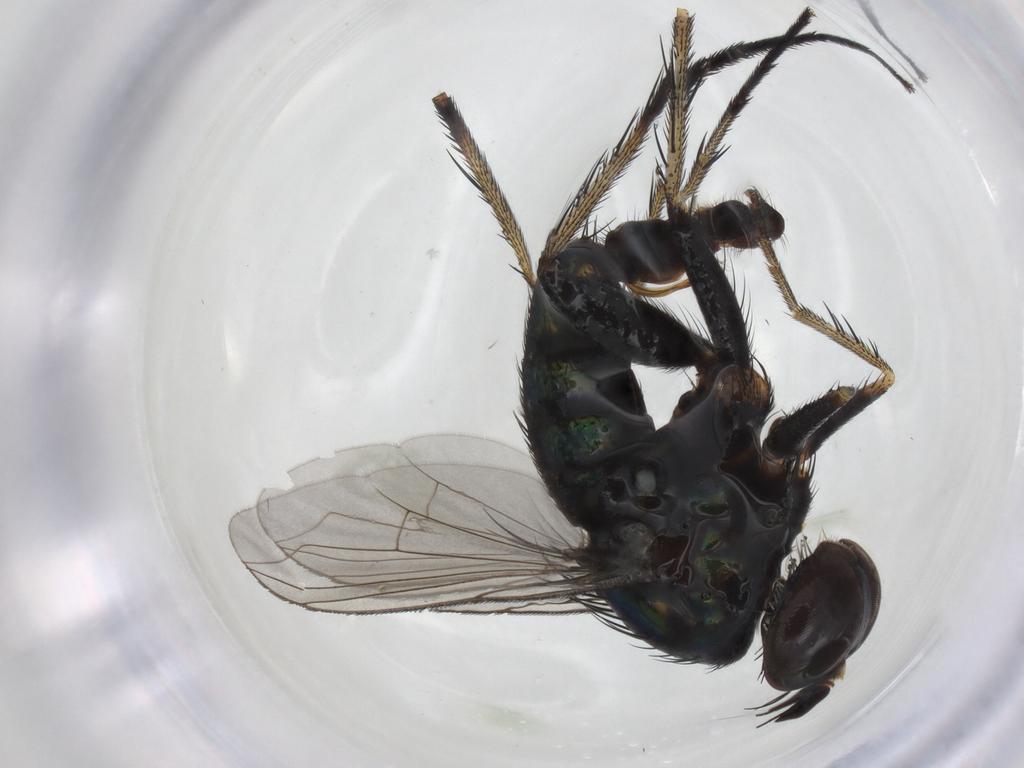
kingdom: Animalia
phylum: Arthropoda
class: Insecta
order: Diptera
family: Dolichopodidae
